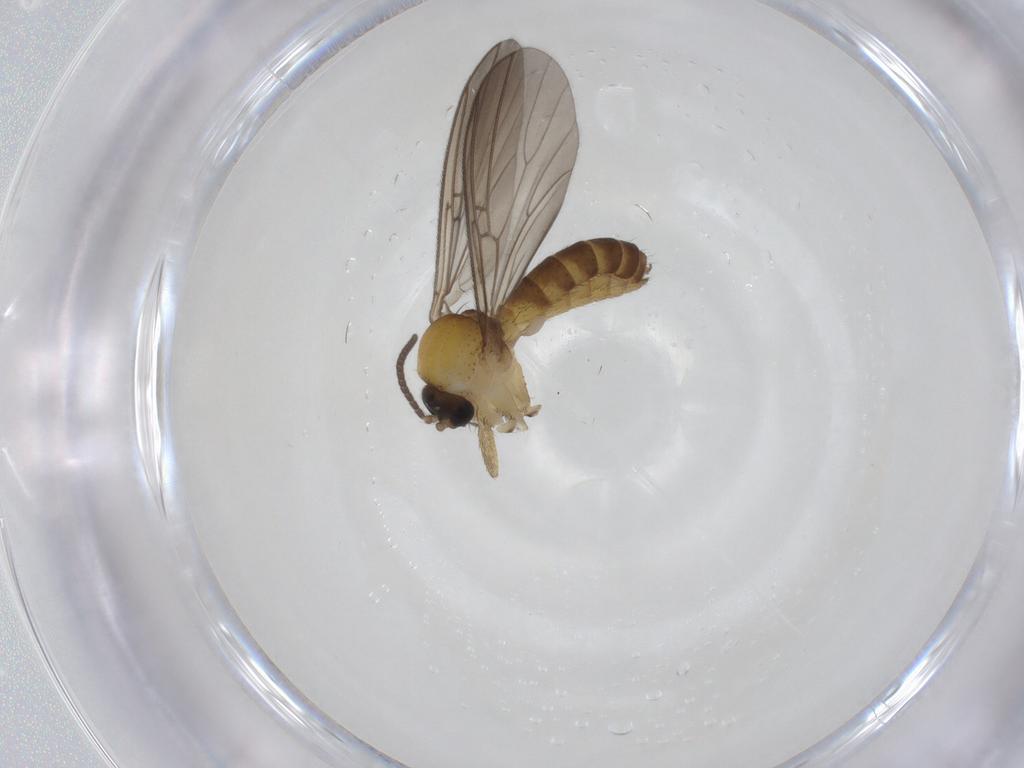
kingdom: Animalia
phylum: Arthropoda
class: Insecta
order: Diptera
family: Mycetophilidae
